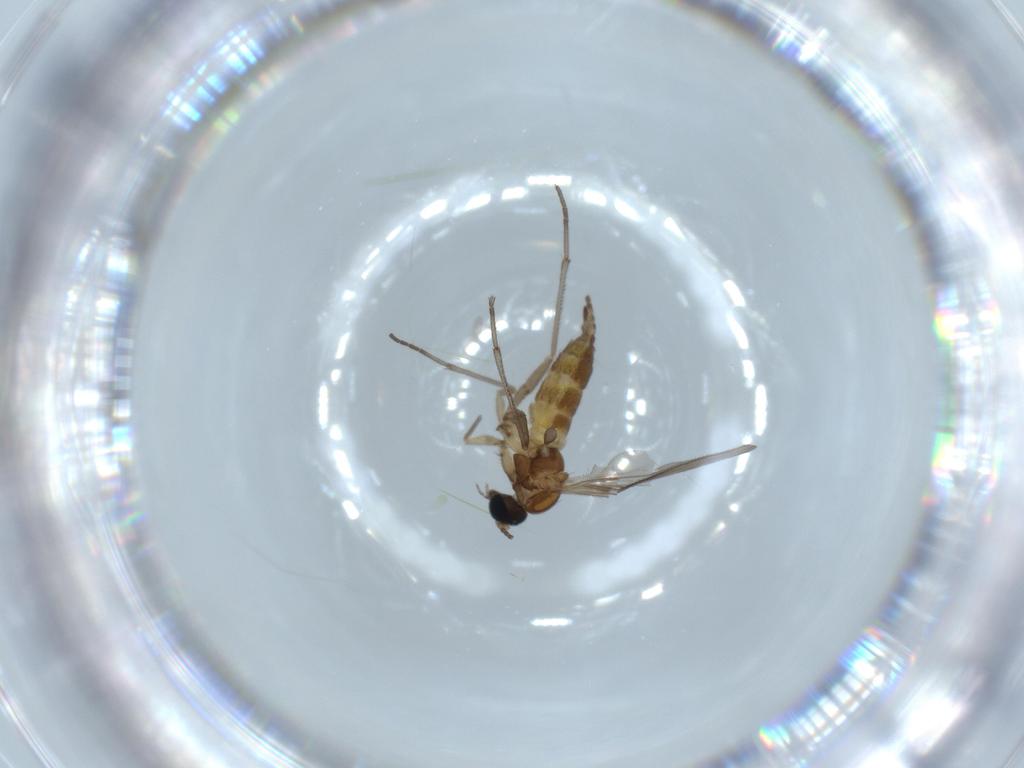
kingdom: Animalia
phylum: Arthropoda
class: Insecta
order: Diptera
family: Sciaridae
